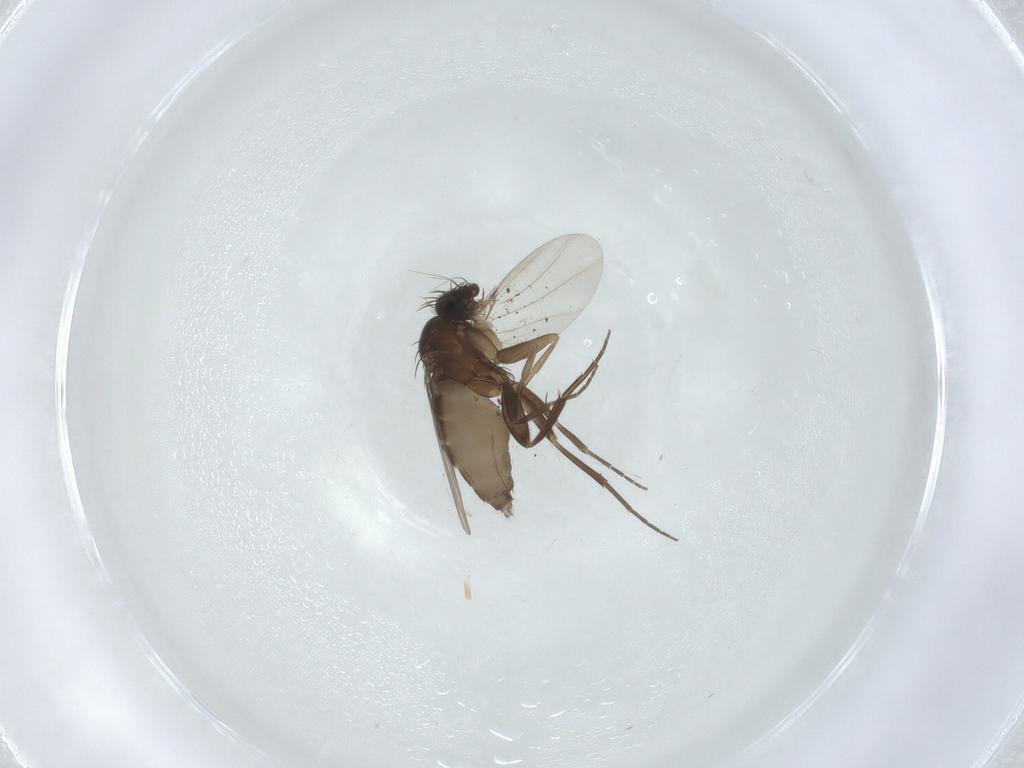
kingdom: Animalia
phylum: Arthropoda
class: Insecta
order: Diptera
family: Phoridae
